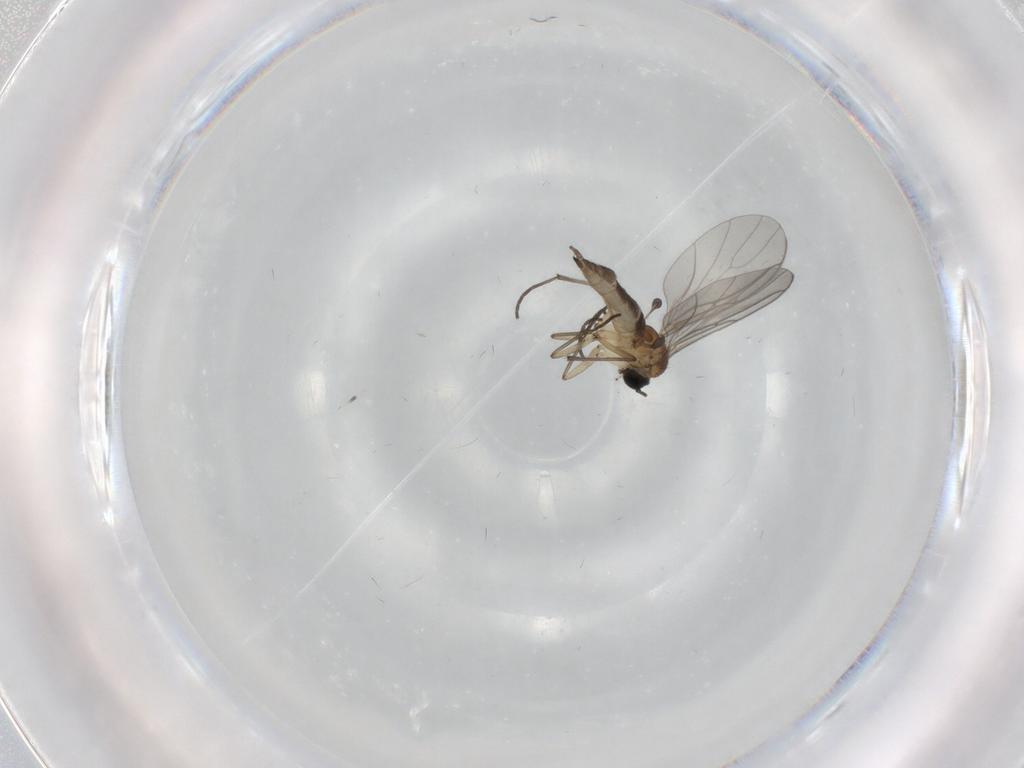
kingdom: Animalia
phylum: Arthropoda
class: Insecta
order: Diptera
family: Sciaridae
